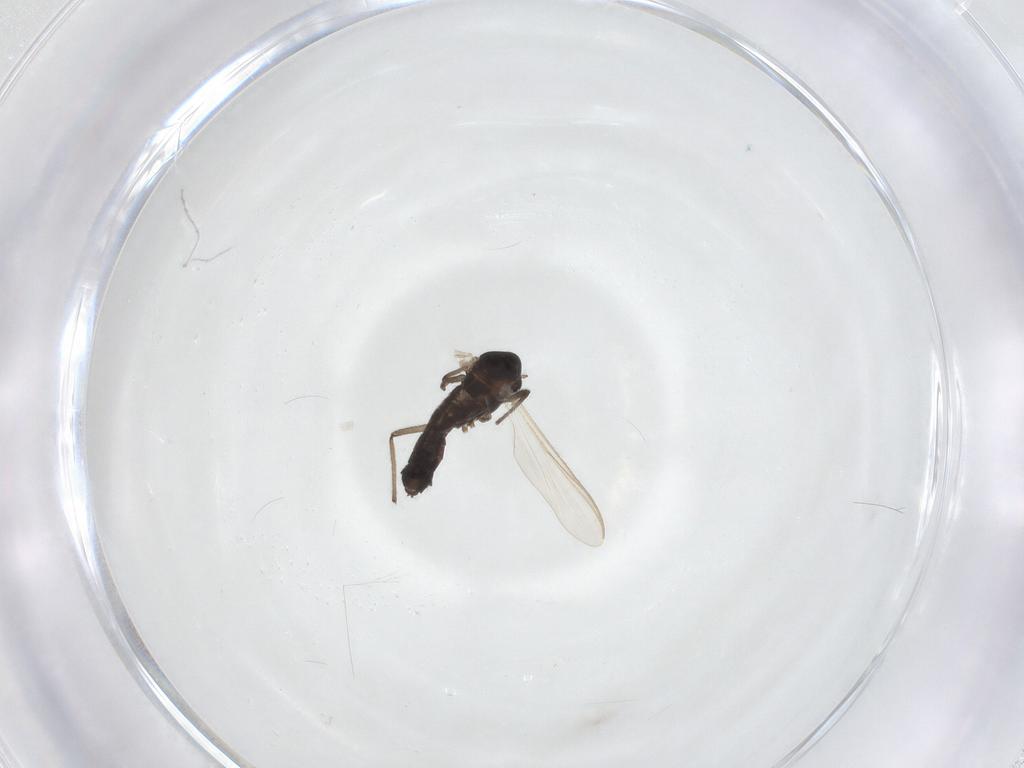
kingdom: Animalia
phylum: Arthropoda
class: Insecta
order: Diptera
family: Chironomidae
